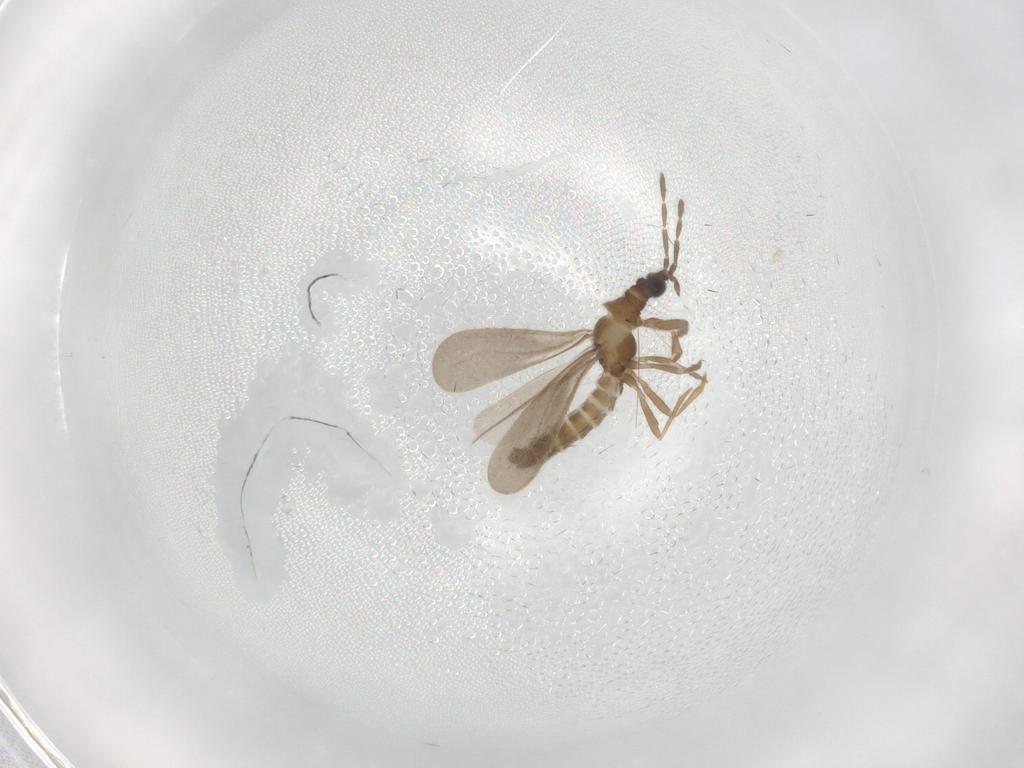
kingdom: Animalia
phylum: Arthropoda
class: Insecta
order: Hemiptera
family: Enicocephalidae
